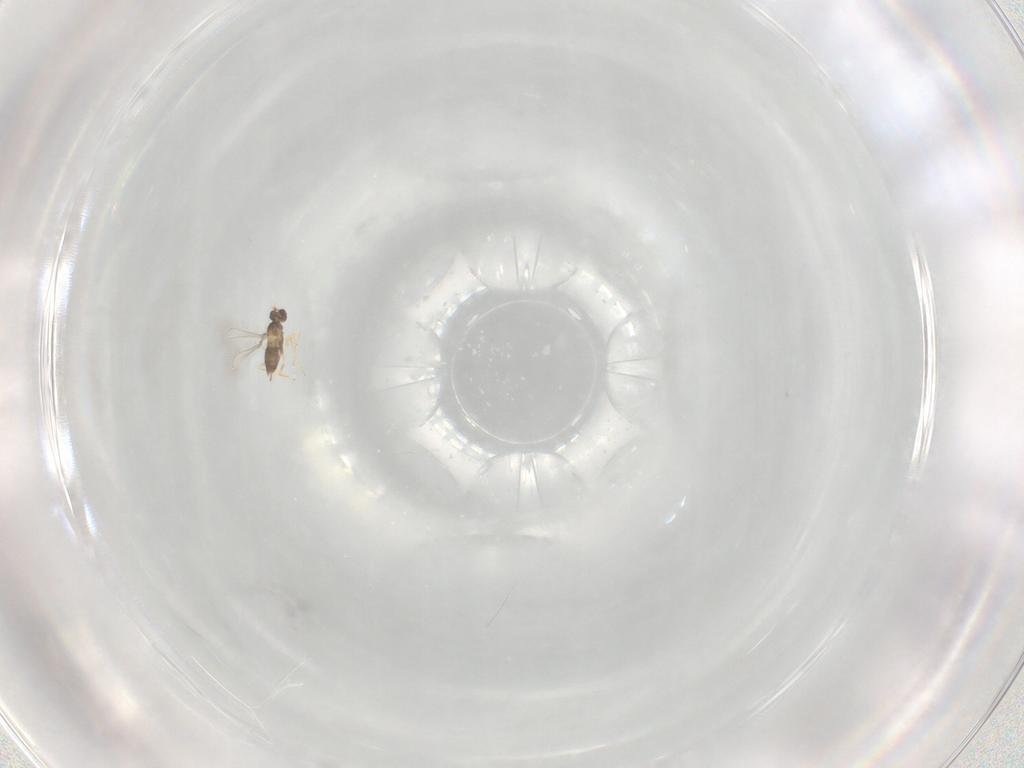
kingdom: Animalia
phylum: Arthropoda
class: Insecta
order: Hymenoptera
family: Mymaridae
